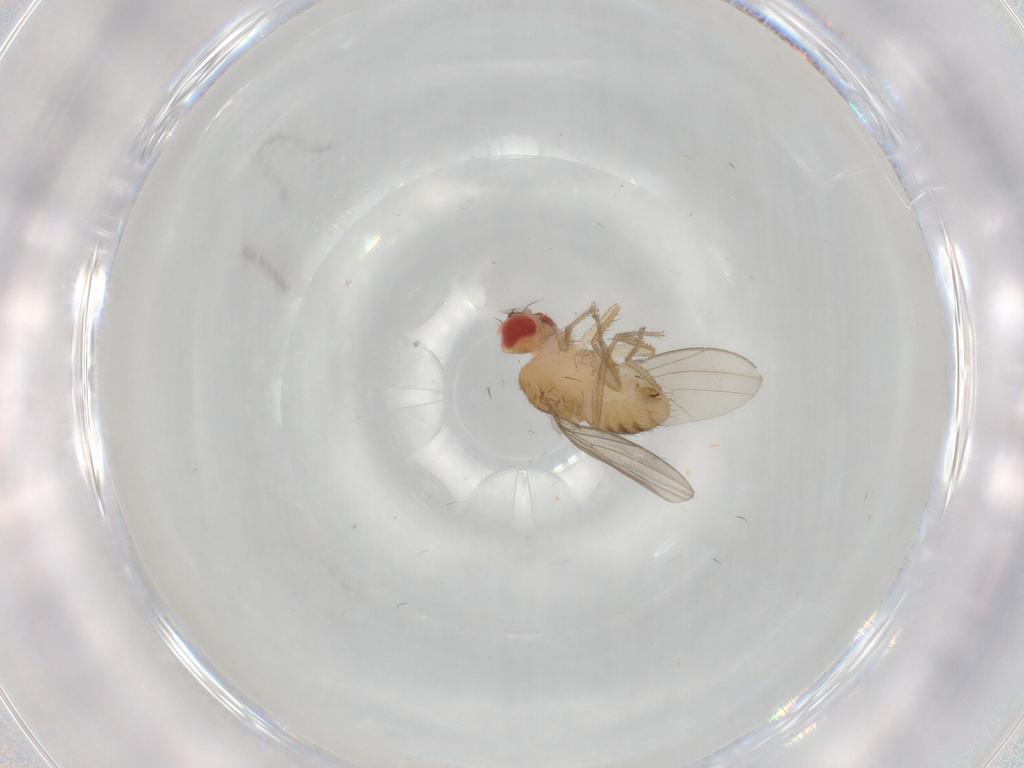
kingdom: Animalia
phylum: Arthropoda
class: Insecta
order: Diptera
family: Drosophilidae
